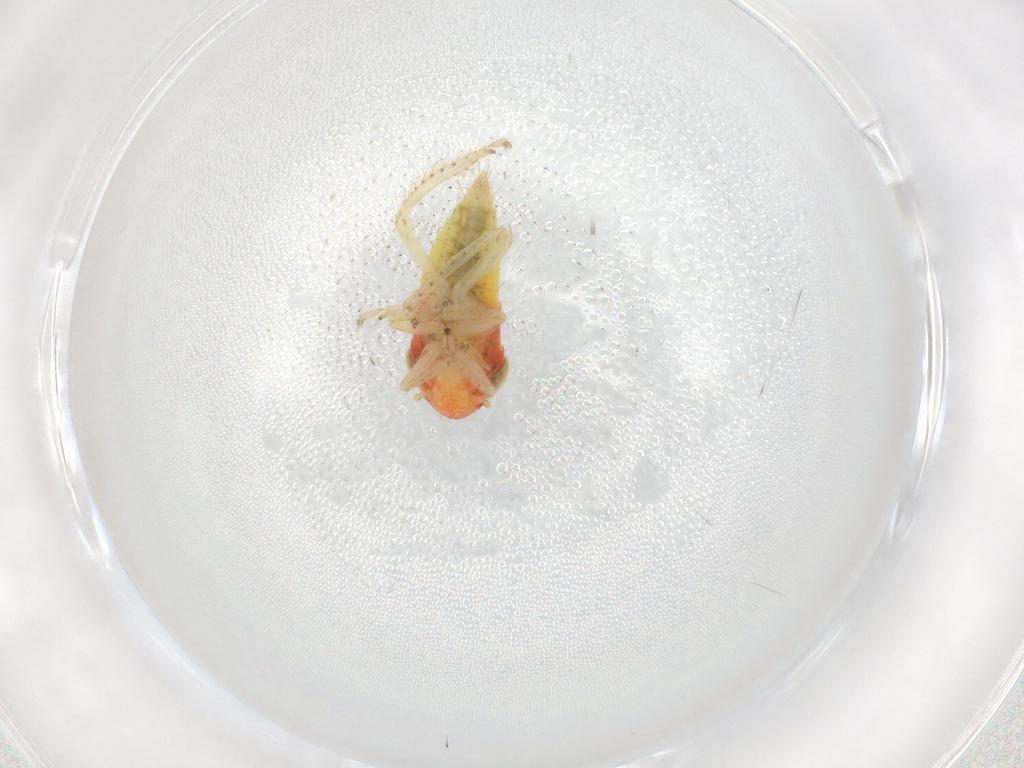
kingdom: Animalia
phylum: Arthropoda
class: Insecta
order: Hemiptera
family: Cicadellidae
